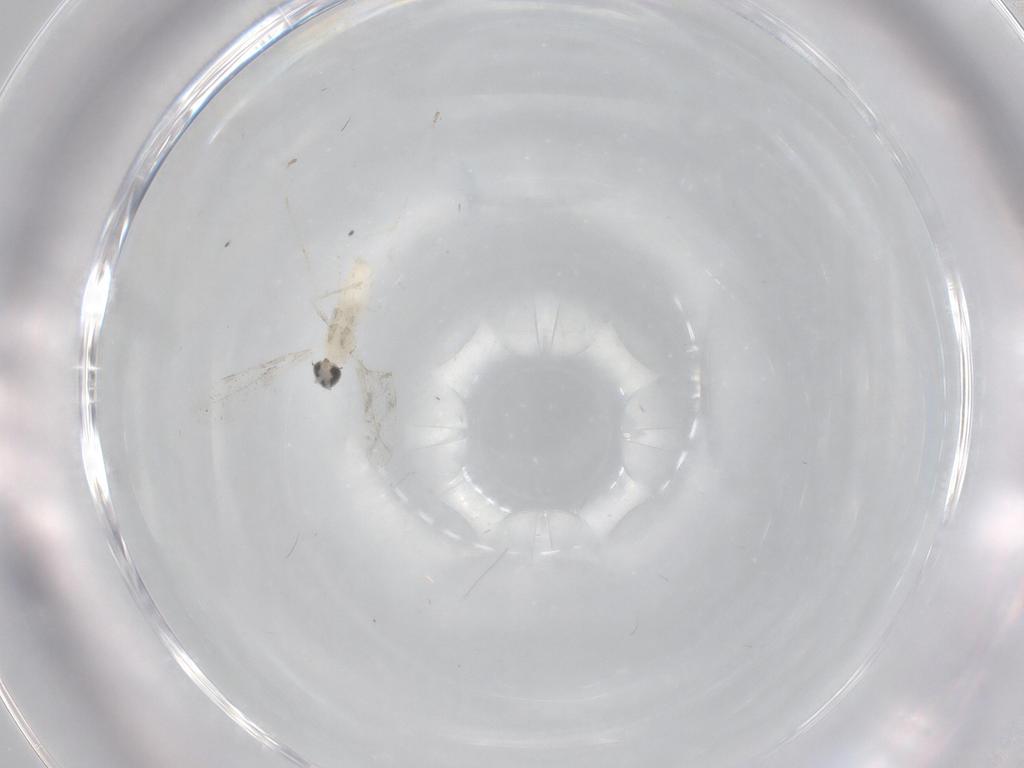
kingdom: Animalia
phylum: Arthropoda
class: Insecta
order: Diptera
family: Cecidomyiidae
